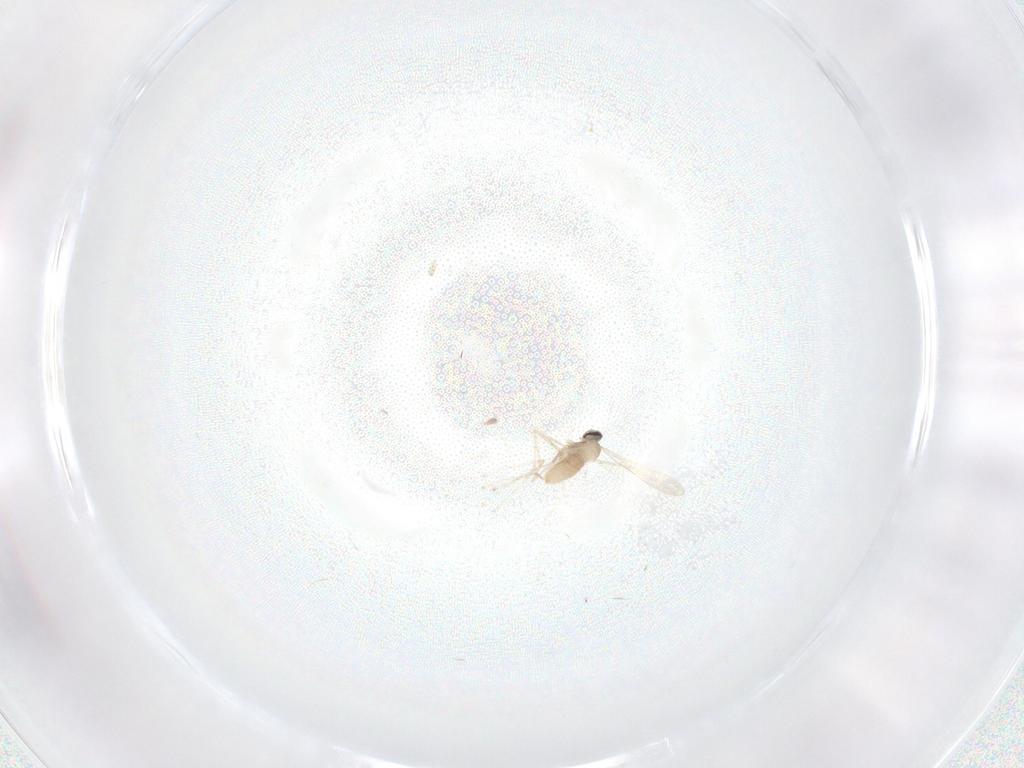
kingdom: Animalia
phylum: Arthropoda
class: Insecta
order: Diptera
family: Cecidomyiidae
